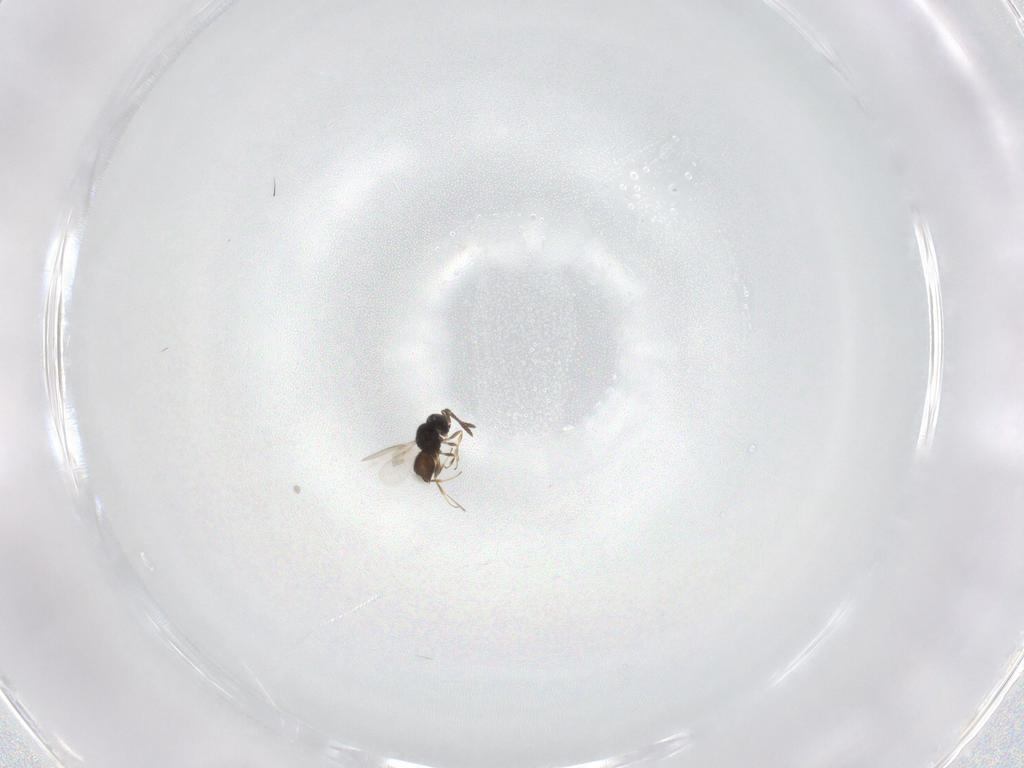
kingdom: Animalia
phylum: Arthropoda
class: Insecta
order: Hymenoptera
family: Scelionidae
